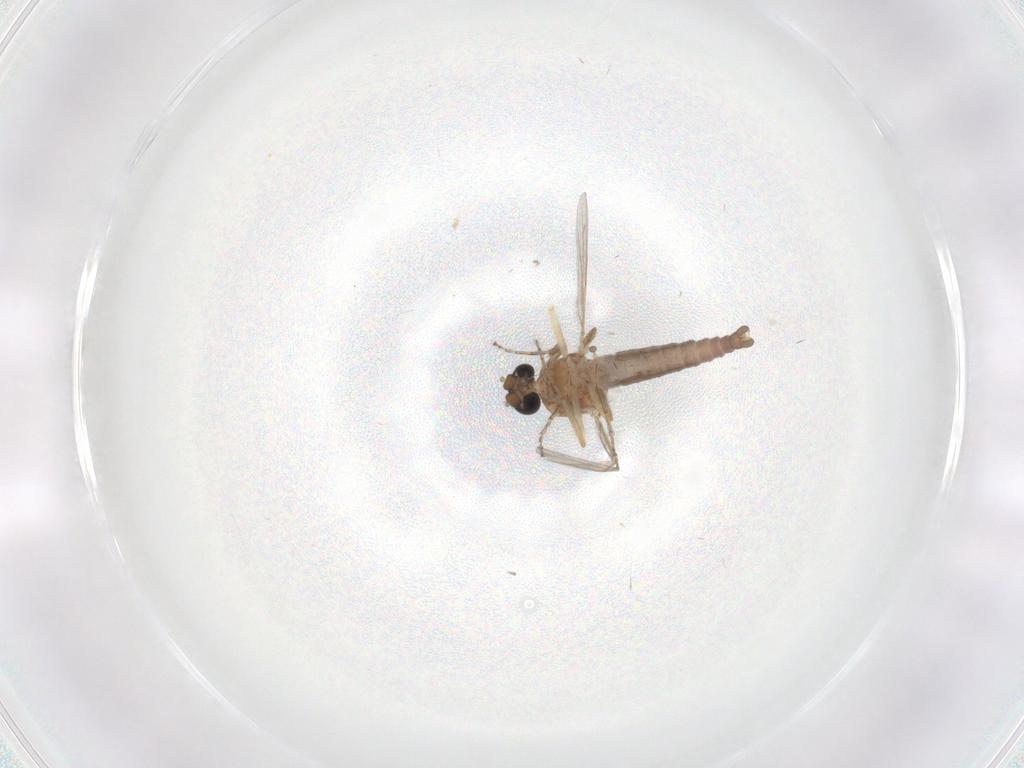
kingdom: Animalia
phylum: Arthropoda
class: Insecta
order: Diptera
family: Ceratopogonidae
